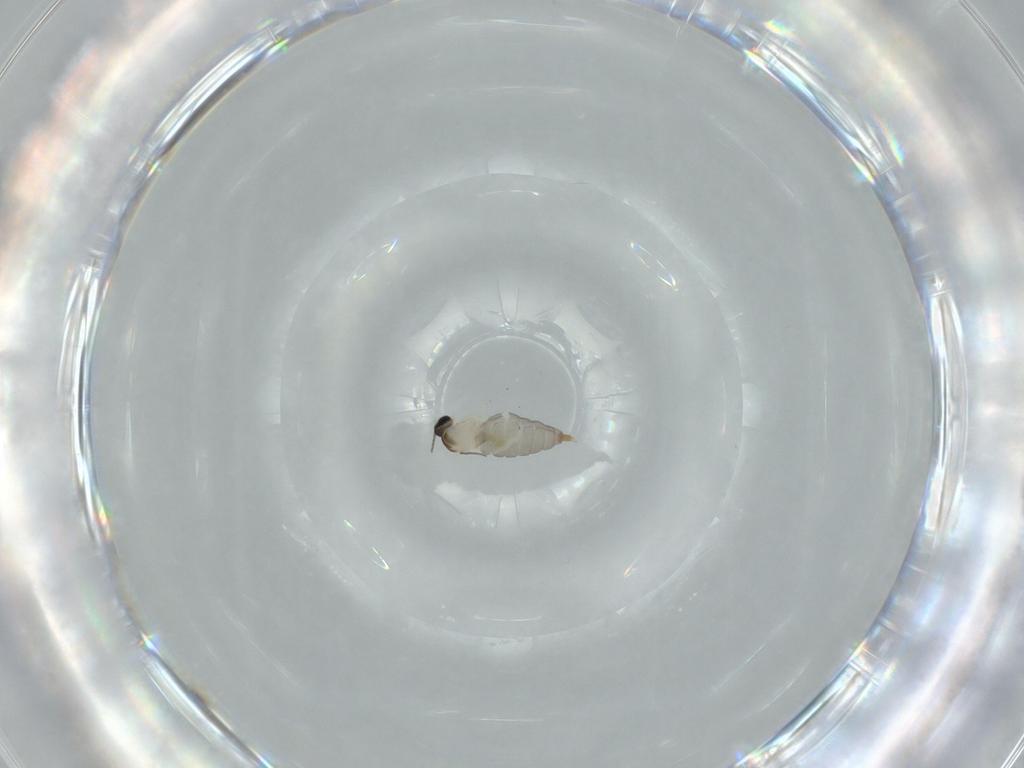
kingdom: Animalia
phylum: Arthropoda
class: Insecta
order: Diptera
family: Cecidomyiidae
